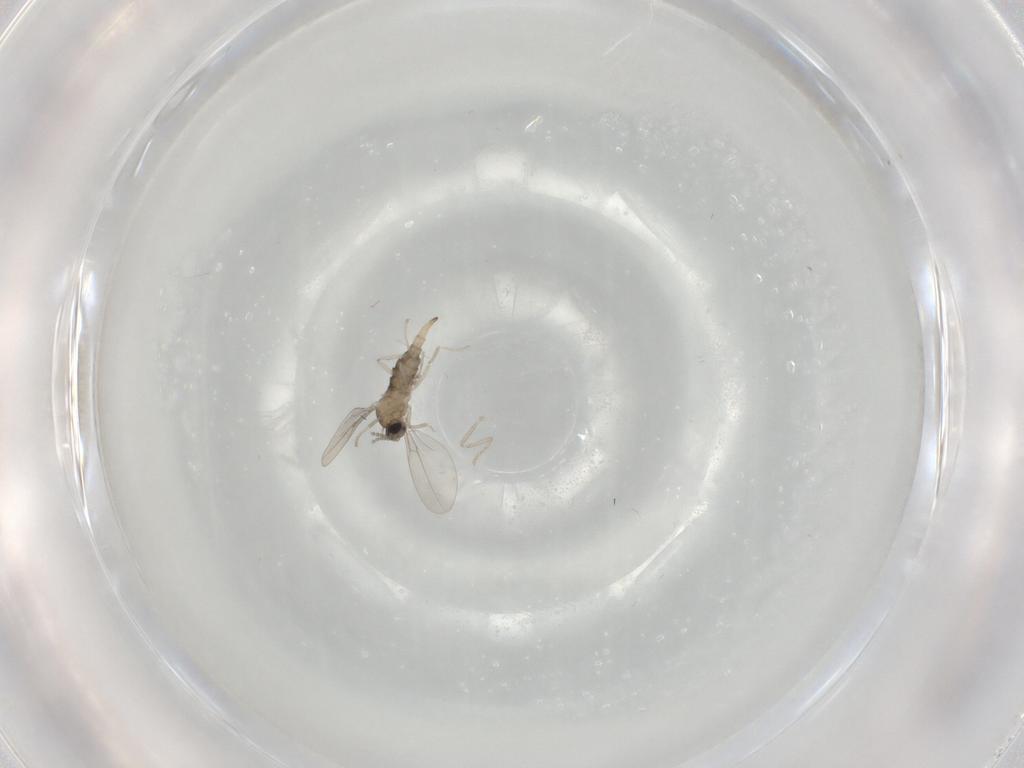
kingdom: Animalia
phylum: Arthropoda
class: Insecta
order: Diptera
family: Cecidomyiidae
